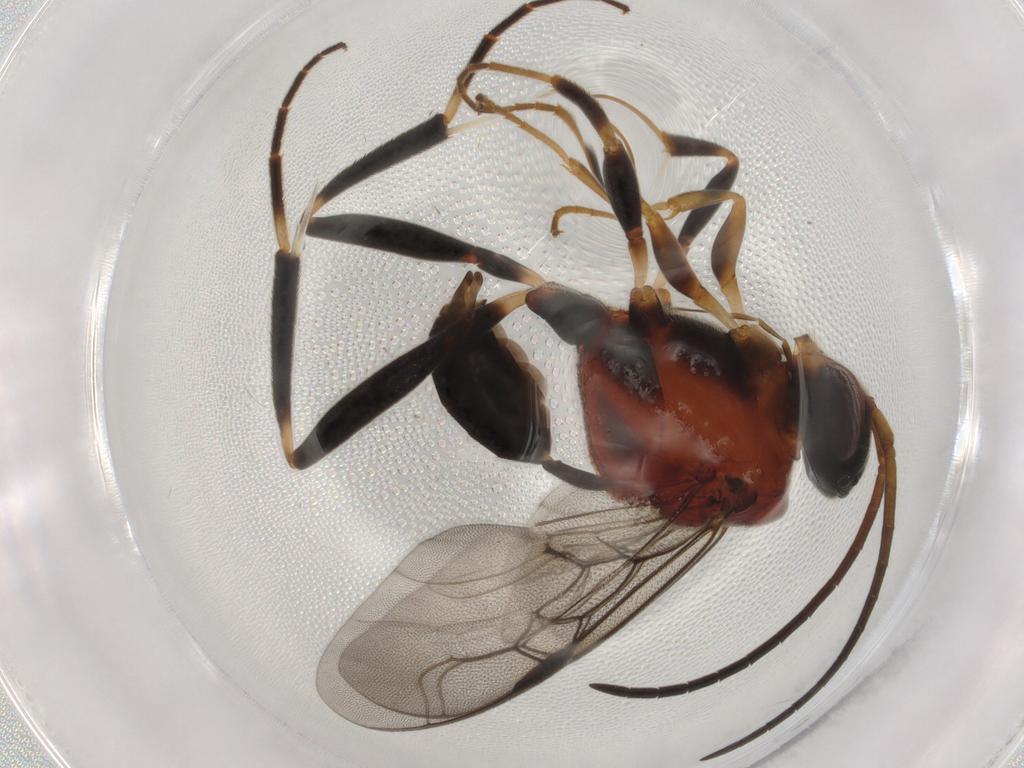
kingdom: Animalia
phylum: Arthropoda
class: Insecta
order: Hymenoptera
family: Evaniidae
